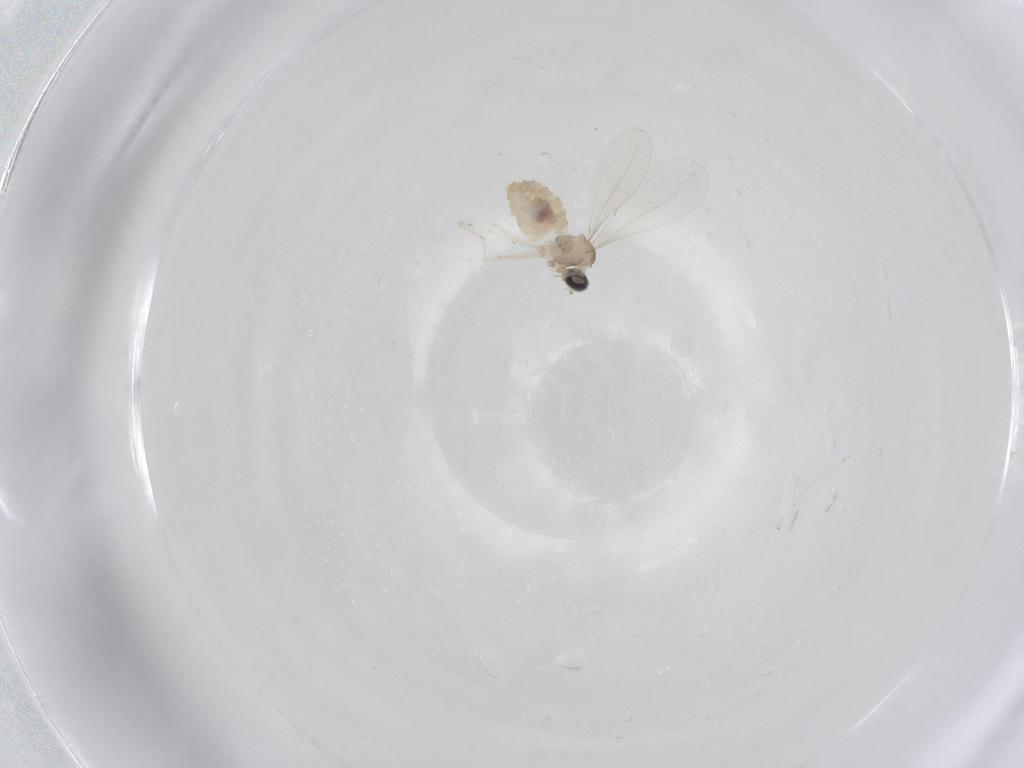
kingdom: Animalia
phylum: Arthropoda
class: Insecta
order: Diptera
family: Cecidomyiidae
